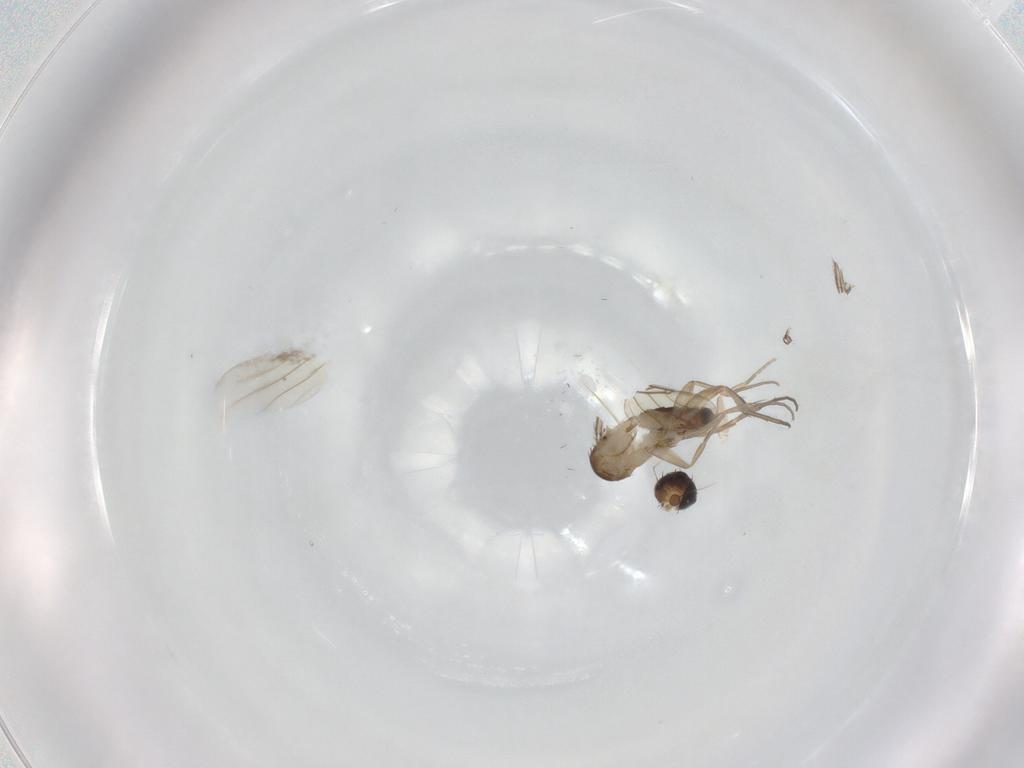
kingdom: Animalia
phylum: Arthropoda
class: Insecta
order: Diptera
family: Phoridae
